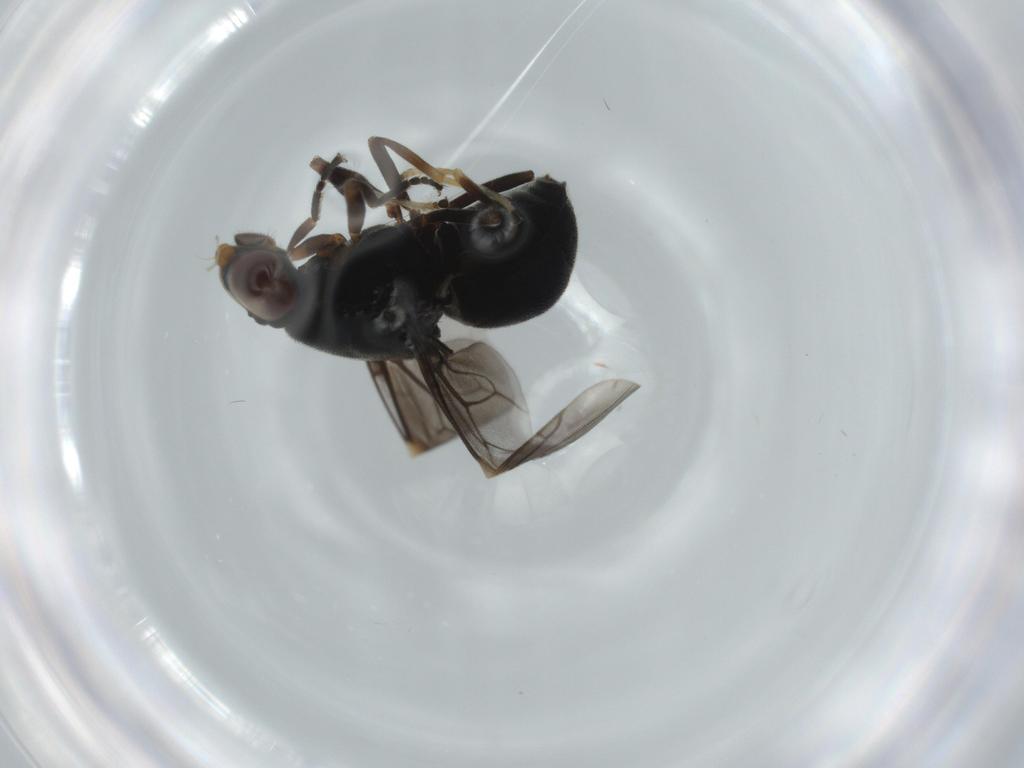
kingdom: Animalia
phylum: Arthropoda
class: Insecta
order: Diptera
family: Stratiomyidae
